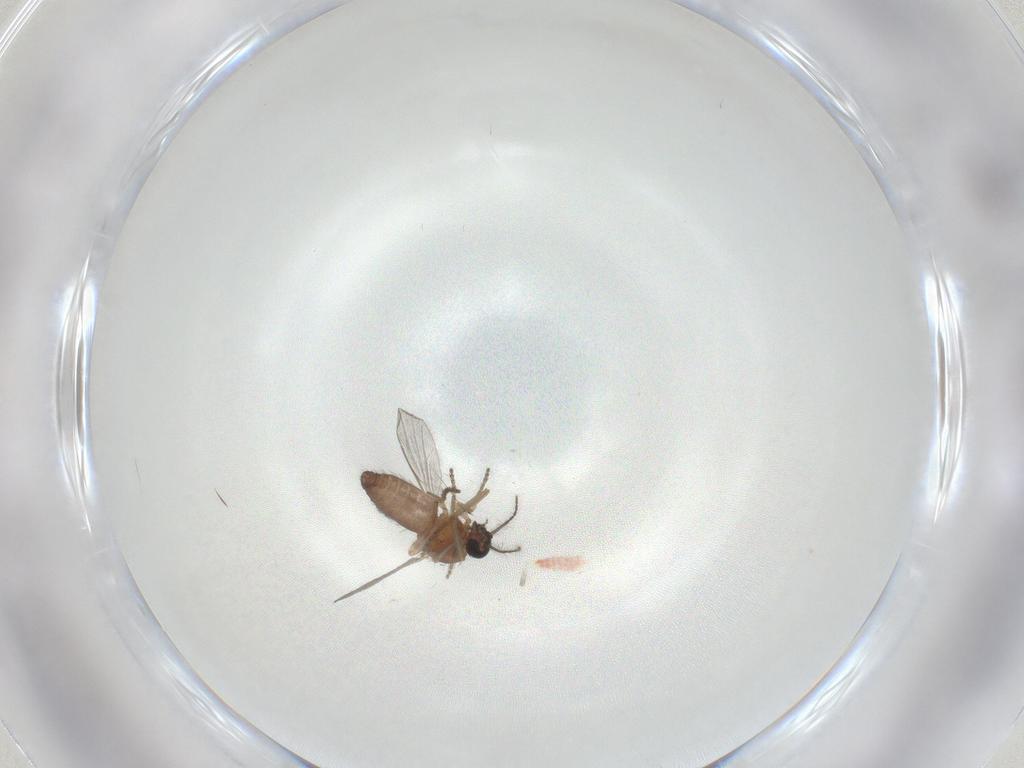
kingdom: Animalia
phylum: Arthropoda
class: Insecta
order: Diptera
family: Ceratopogonidae
